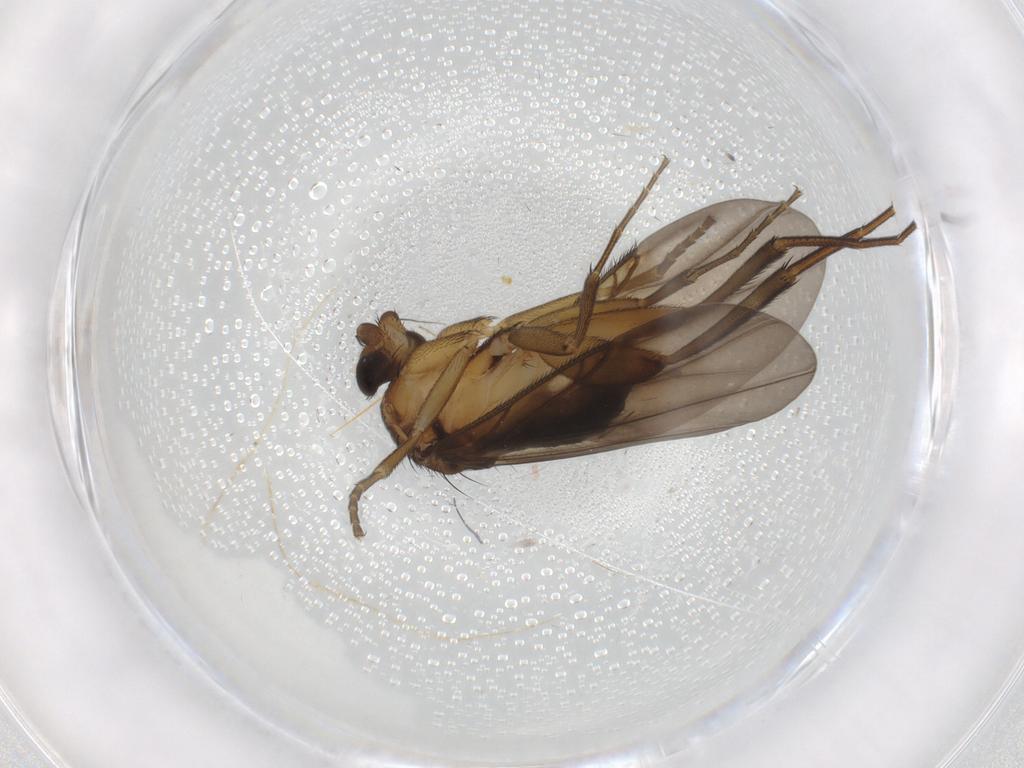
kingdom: Animalia
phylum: Arthropoda
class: Insecta
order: Diptera
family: Phoridae
